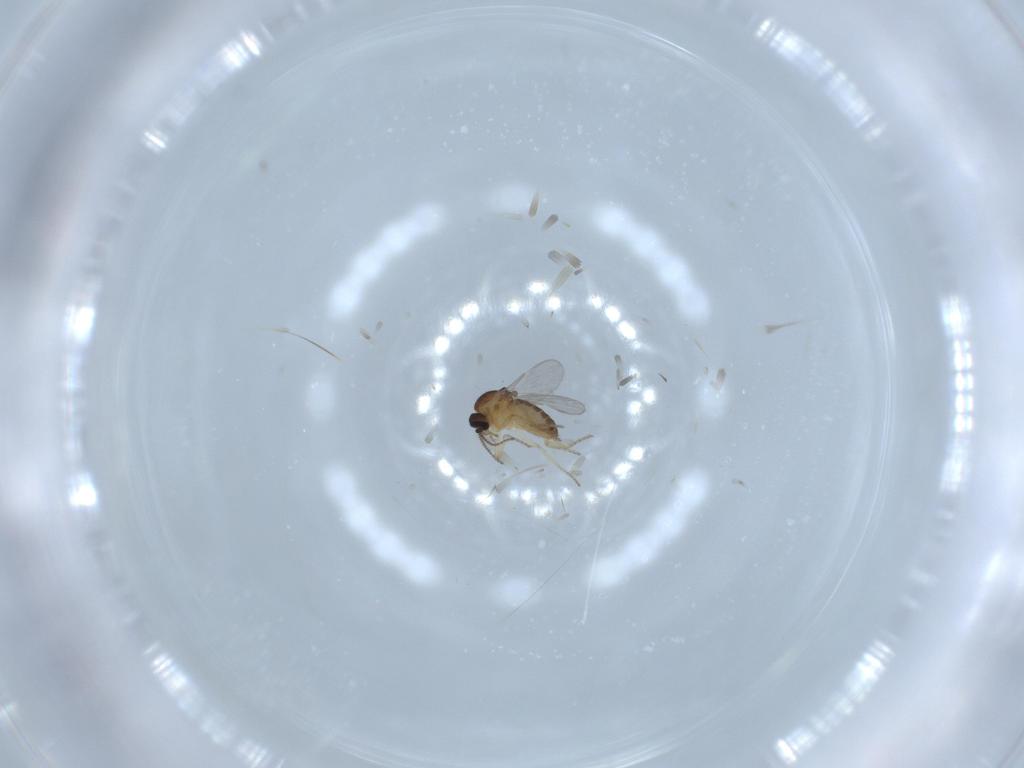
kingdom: Animalia
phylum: Arthropoda
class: Insecta
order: Diptera
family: Ceratopogonidae
